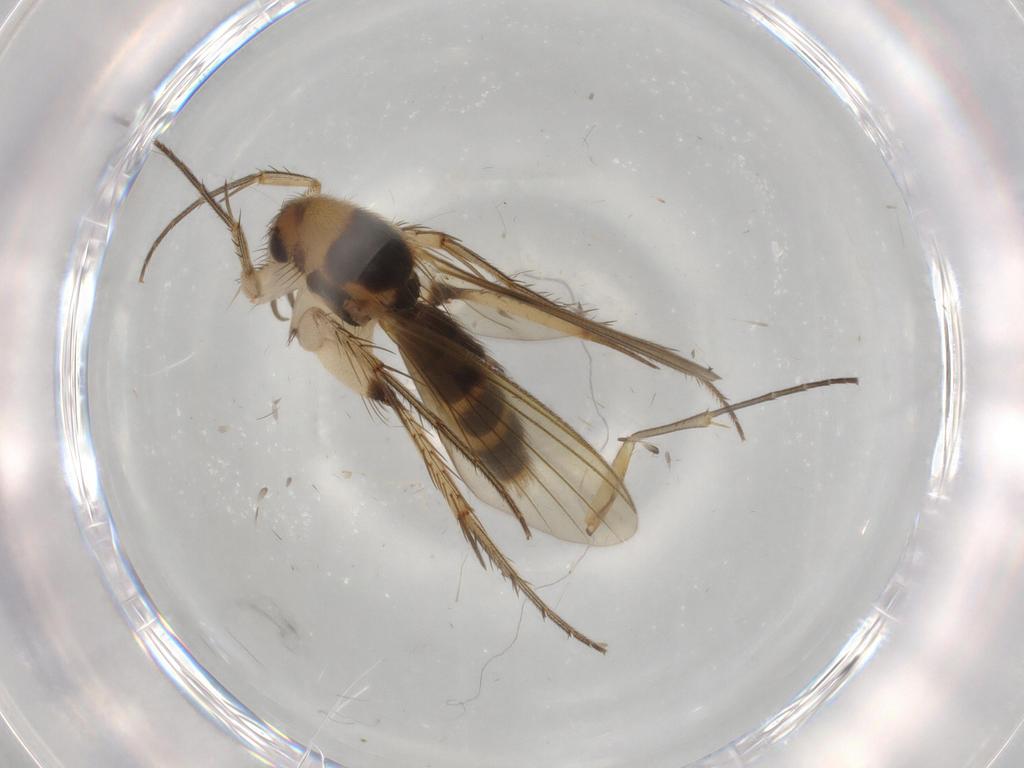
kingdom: Animalia
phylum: Arthropoda
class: Insecta
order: Diptera
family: Mycetophilidae
